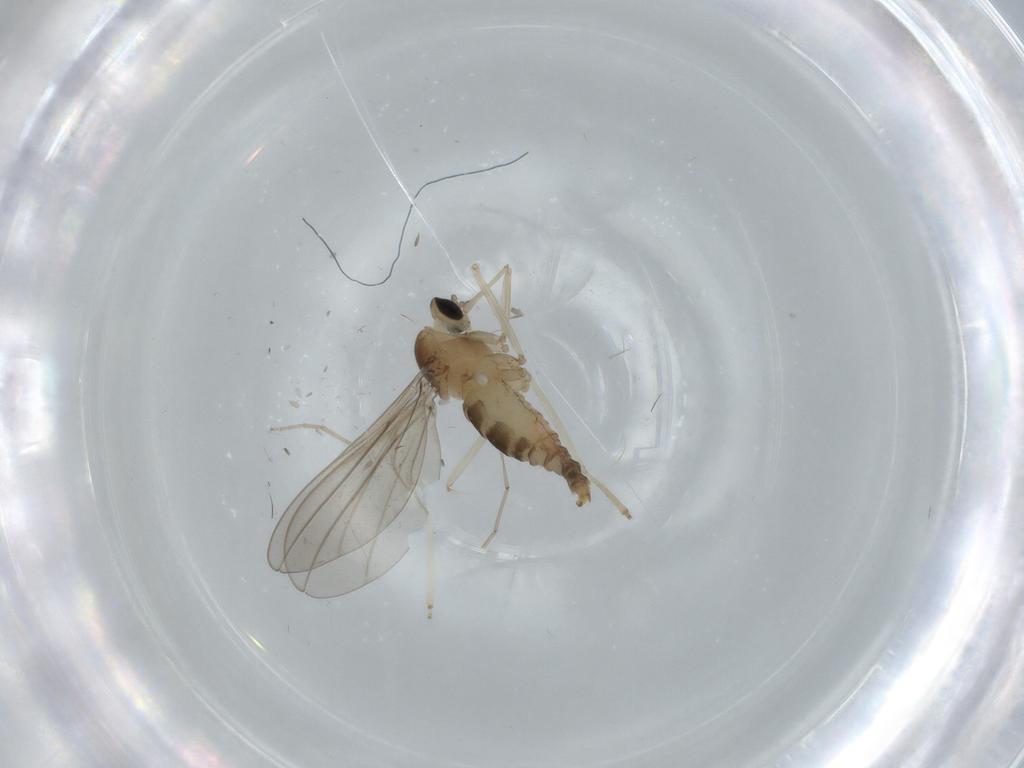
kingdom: Animalia
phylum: Arthropoda
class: Insecta
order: Diptera
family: Cecidomyiidae
